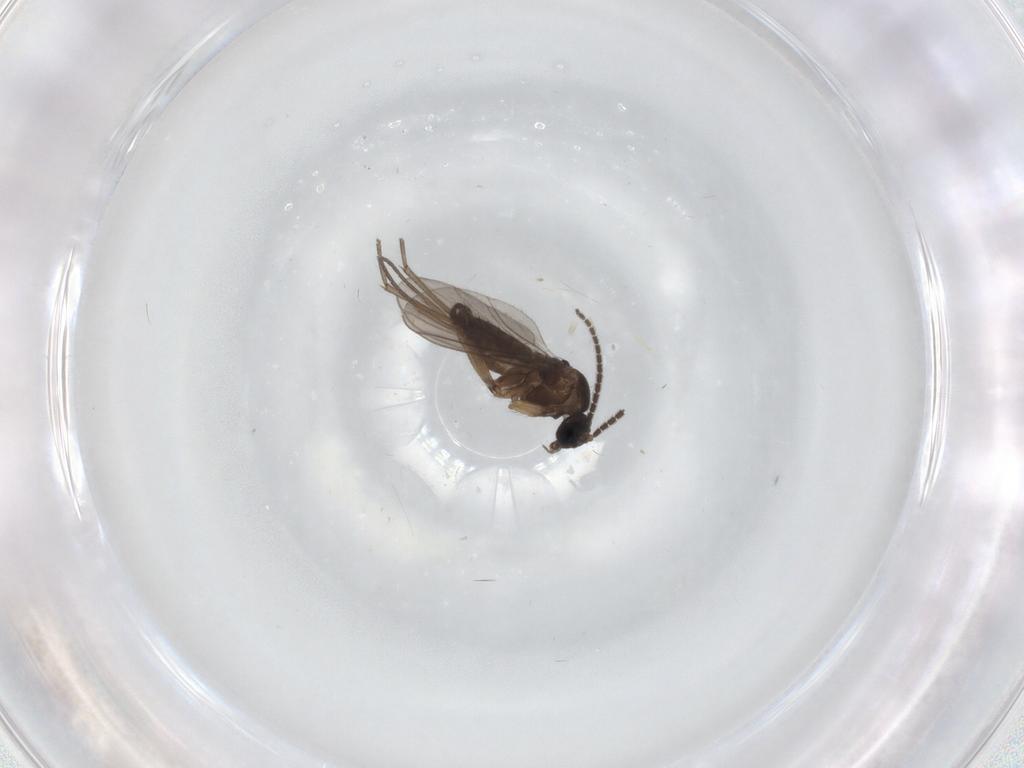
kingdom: Animalia
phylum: Arthropoda
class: Insecta
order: Diptera
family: Sciaridae
